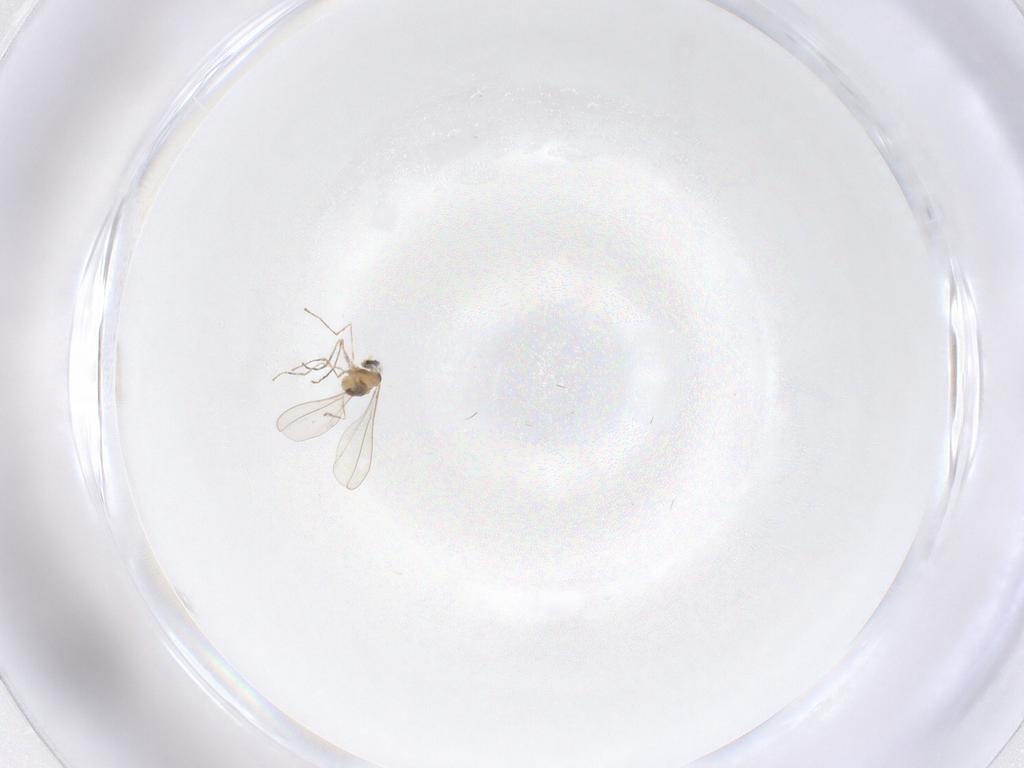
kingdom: Animalia
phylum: Arthropoda
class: Insecta
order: Diptera
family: Cecidomyiidae
